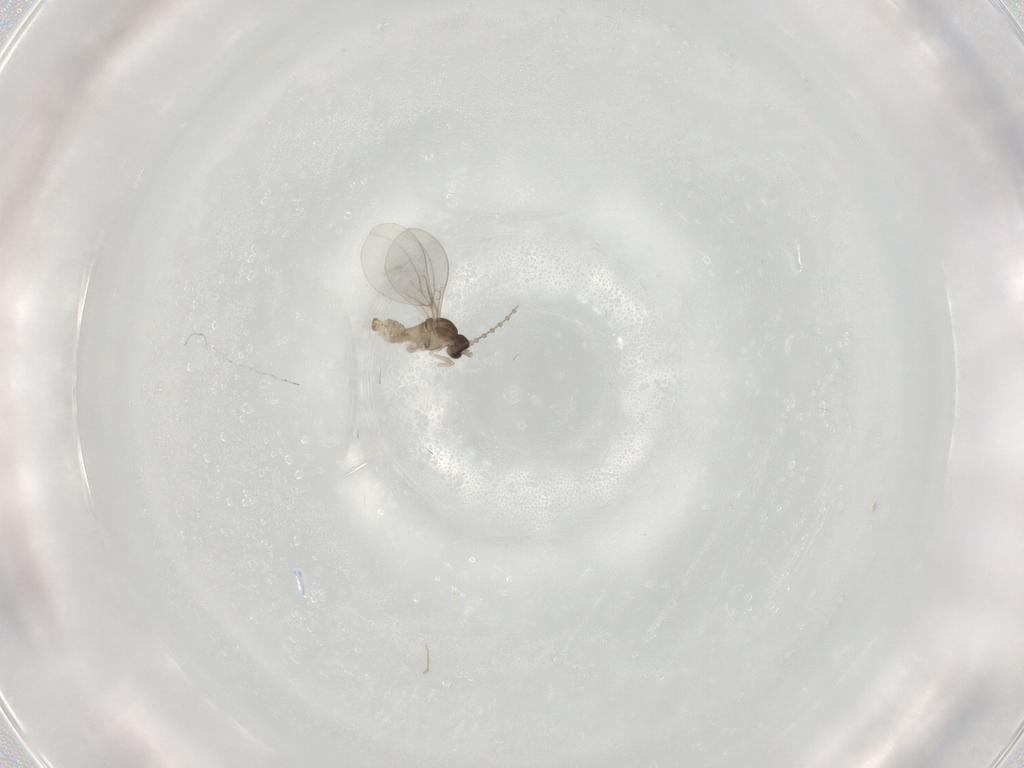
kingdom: Animalia
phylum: Arthropoda
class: Insecta
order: Diptera
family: Cecidomyiidae
